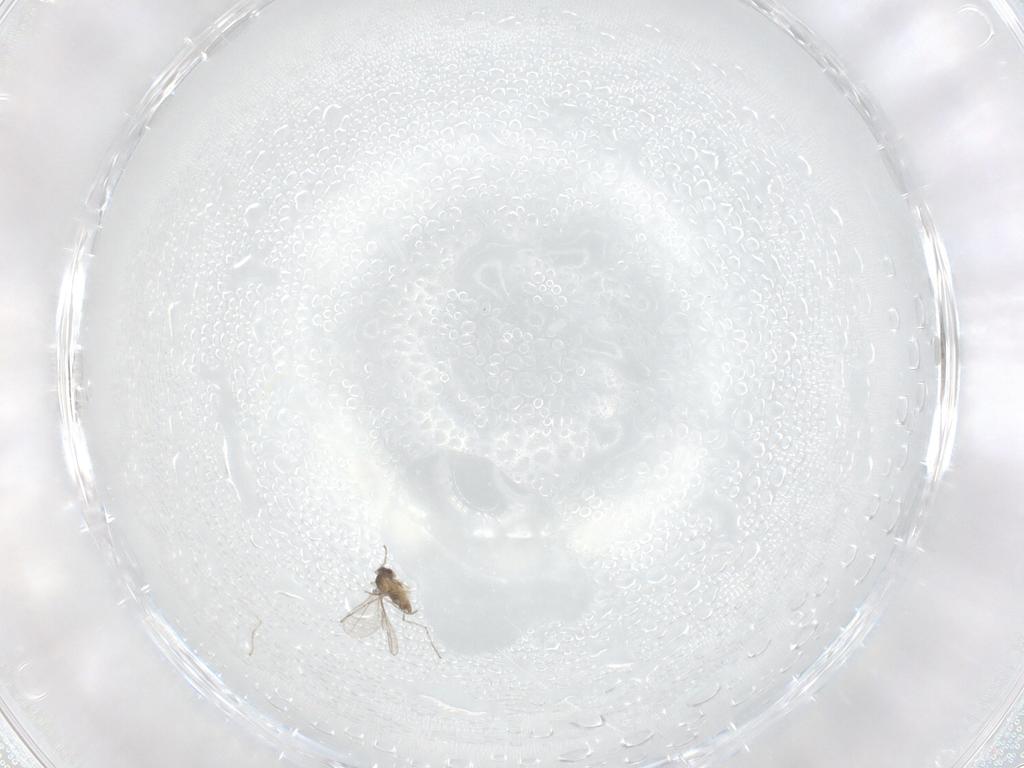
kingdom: Animalia
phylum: Arthropoda
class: Insecta
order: Diptera
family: Cecidomyiidae
